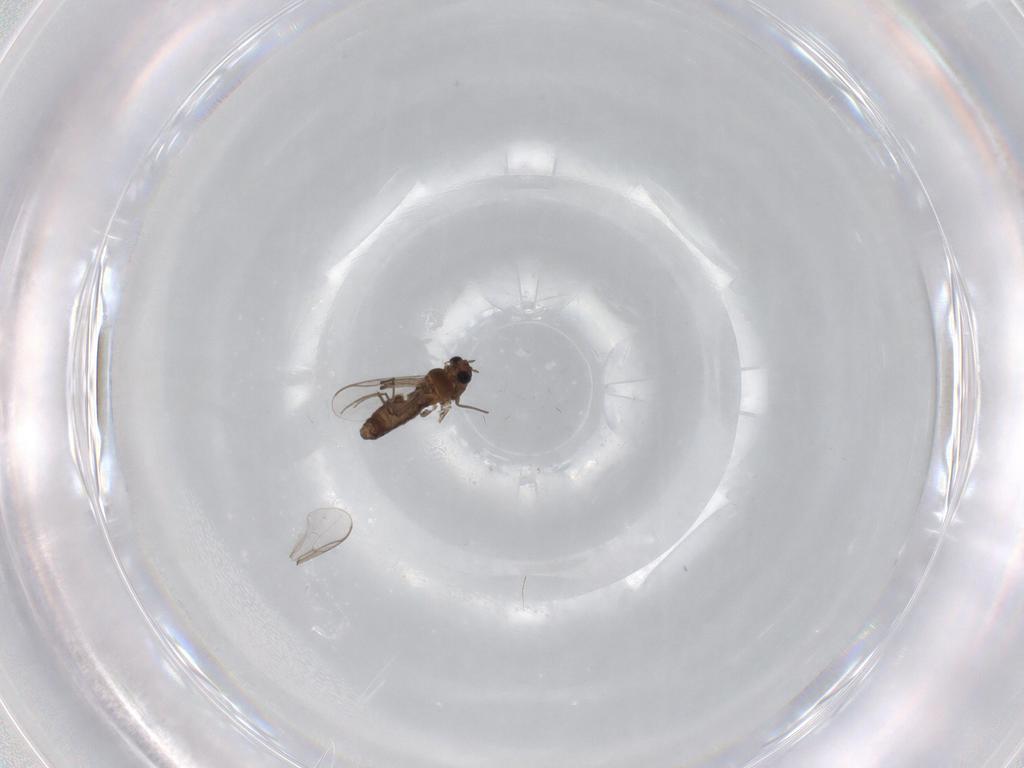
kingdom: Animalia
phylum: Arthropoda
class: Insecta
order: Diptera
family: Chironomidae
